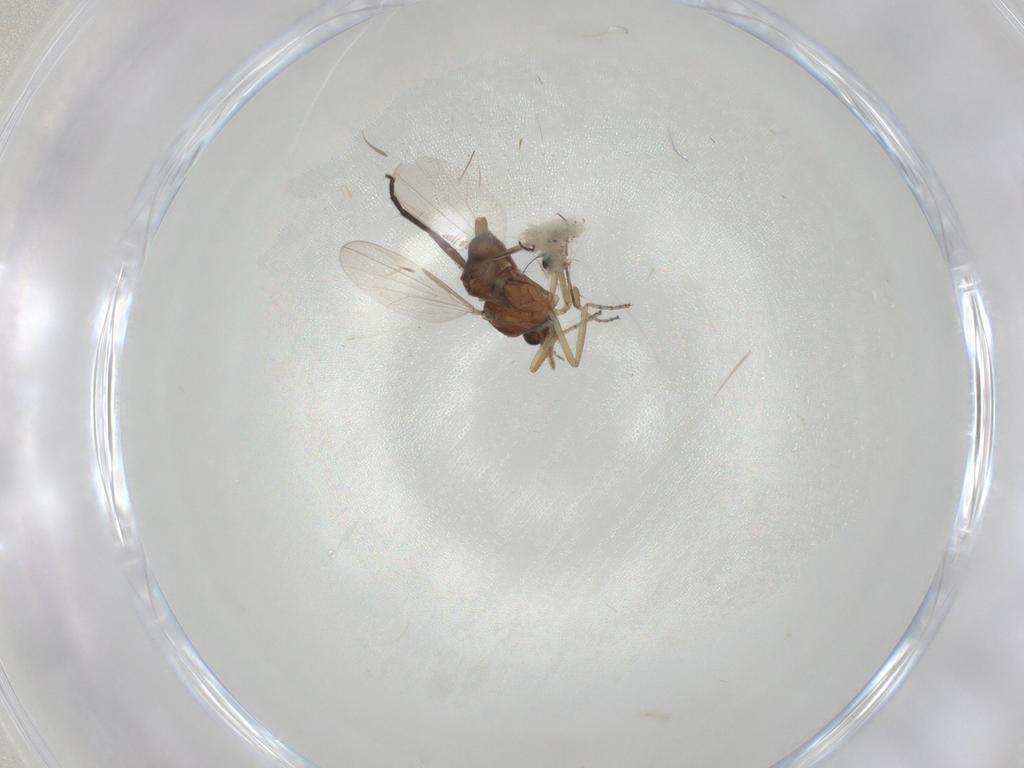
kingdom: Animalia
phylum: Arthropoda
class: Insecta
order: Diptera
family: Ceratopogonidae
